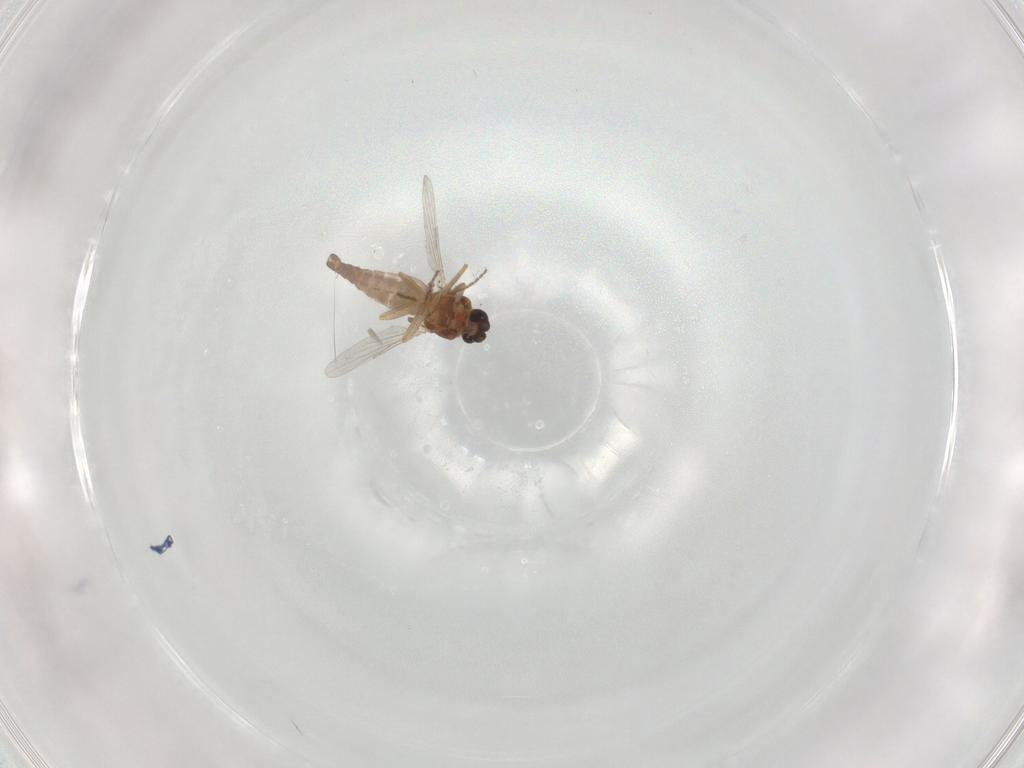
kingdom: Animalia
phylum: Arthropoda
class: Insecta
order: Diptera
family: Ceratopogonidae
